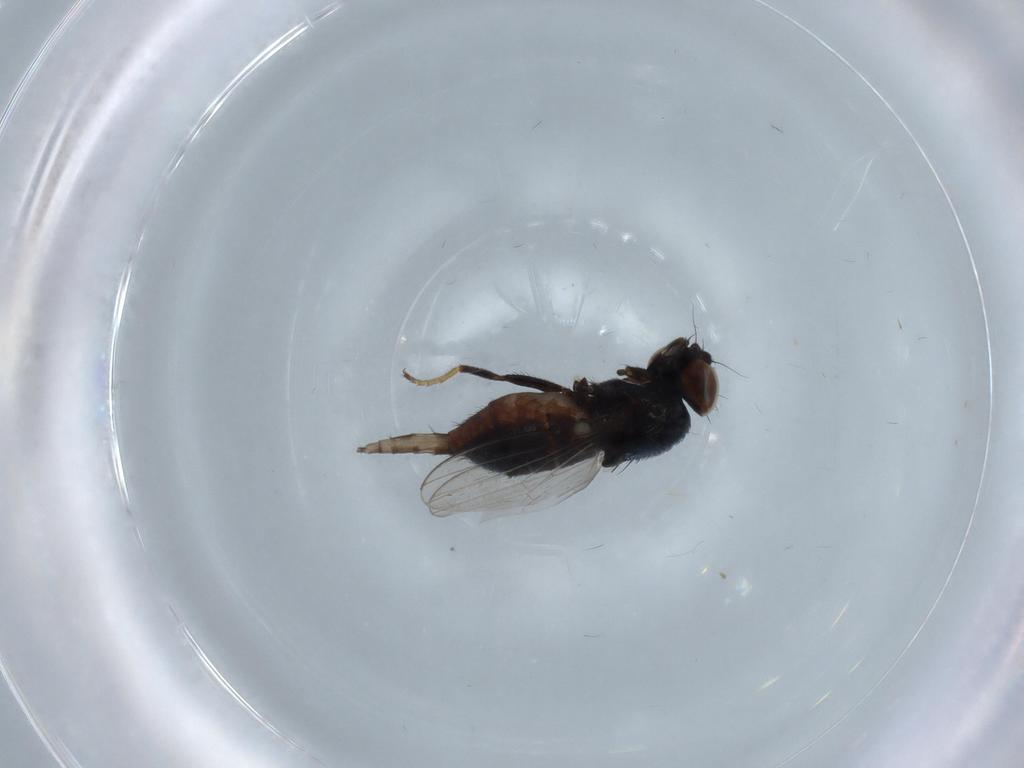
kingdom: Animalia
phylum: Arthropoda
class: Insecta
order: Diptera
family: Milichiidae
